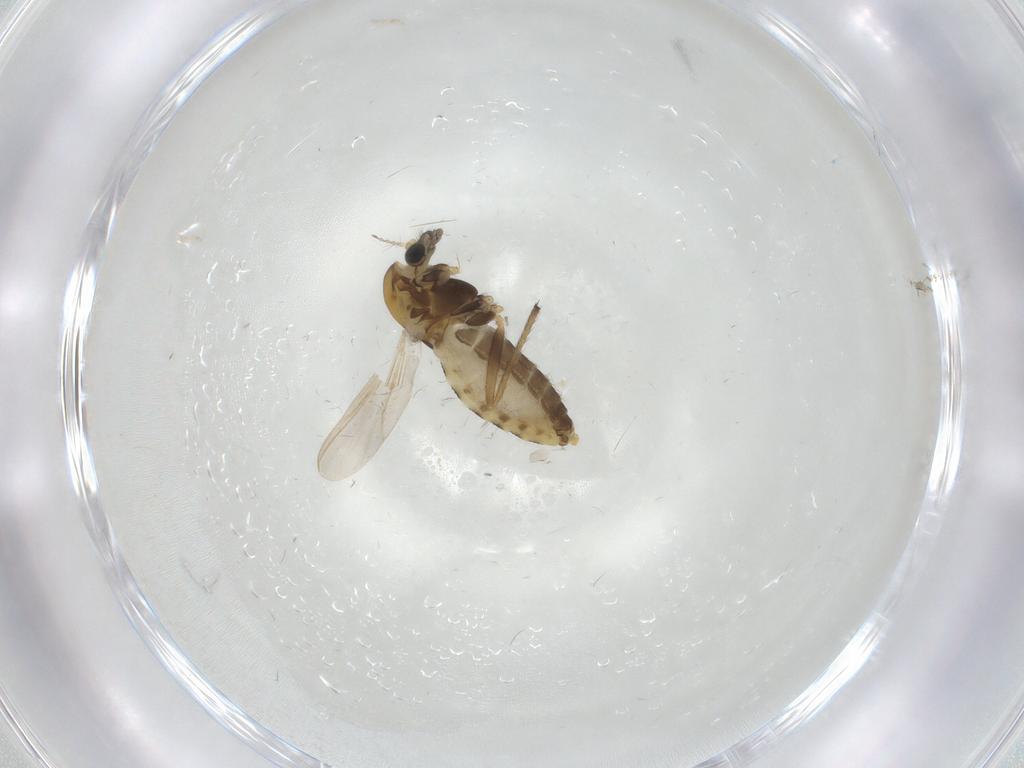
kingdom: Animalia
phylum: Arthropoda
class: Insecta
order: Diptera
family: Chironomidae
